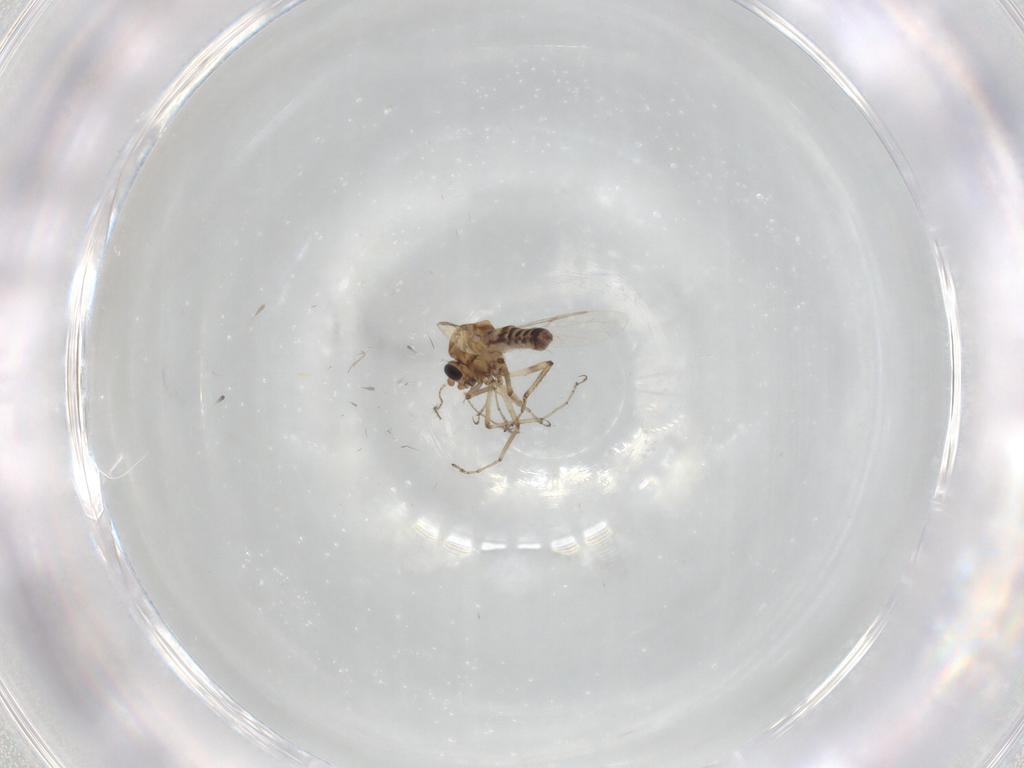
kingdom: Animalia
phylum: Arthropoda
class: Insecta
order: Diptera
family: Ceratopogonidae
